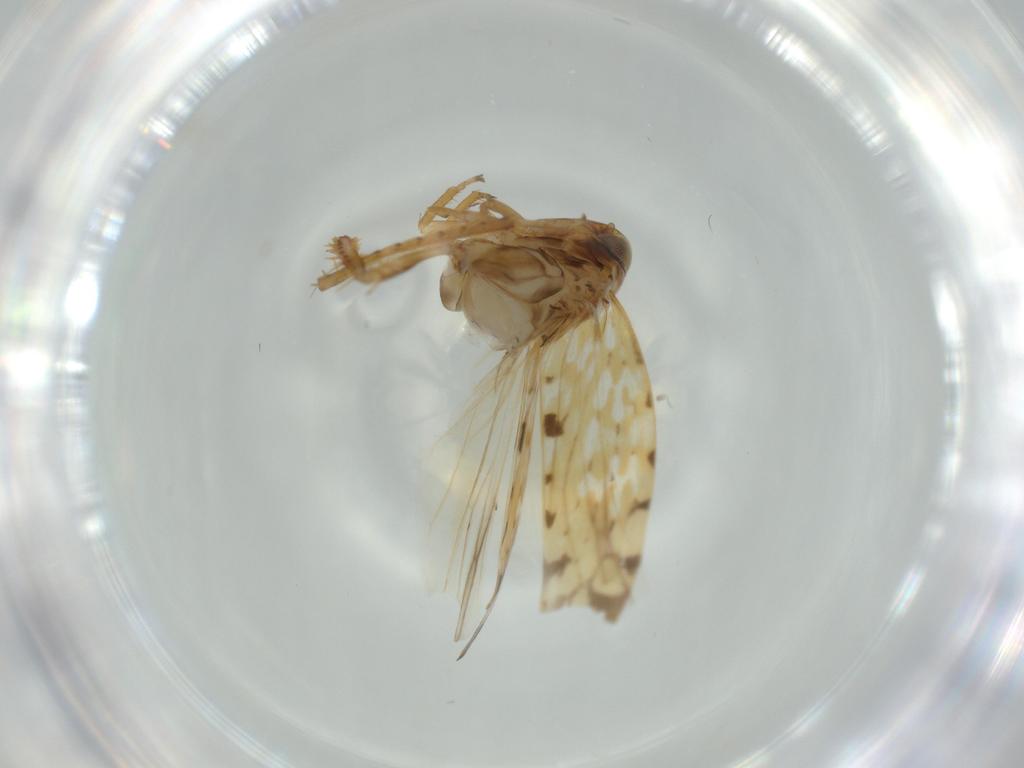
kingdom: Animalia
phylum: Arthropoda
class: Insecta
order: Hemiptera
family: Cicadellidae
